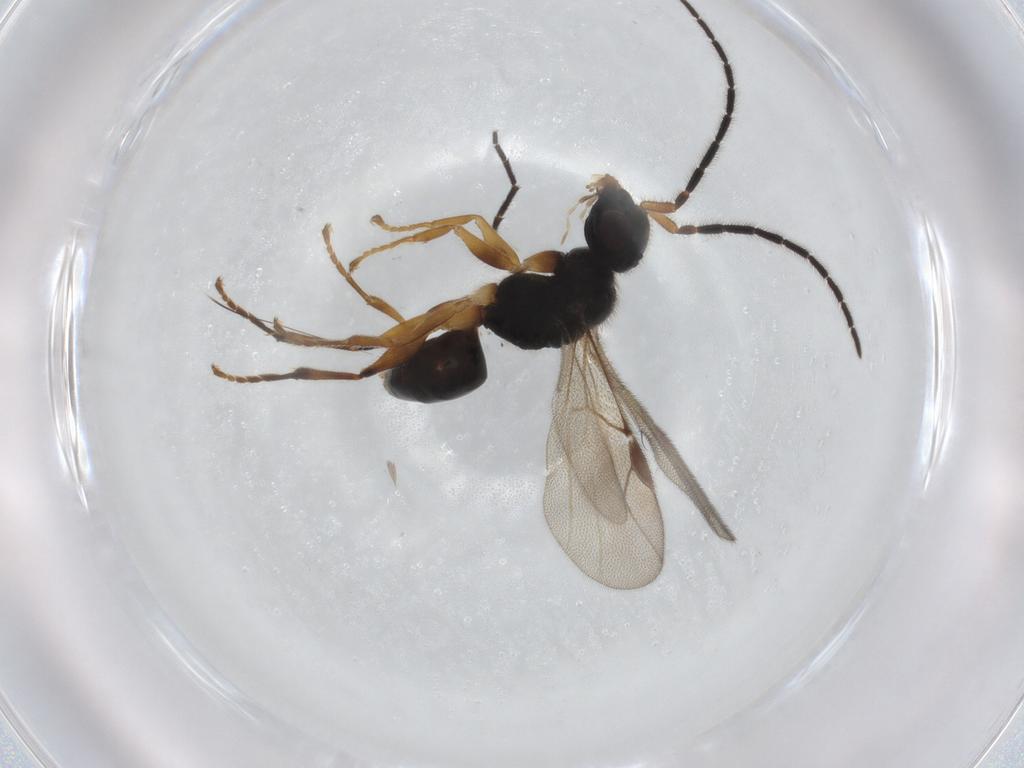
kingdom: Animalia
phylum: Arthropoda
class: Insecta
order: Hymenoptera
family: Dryinidae
